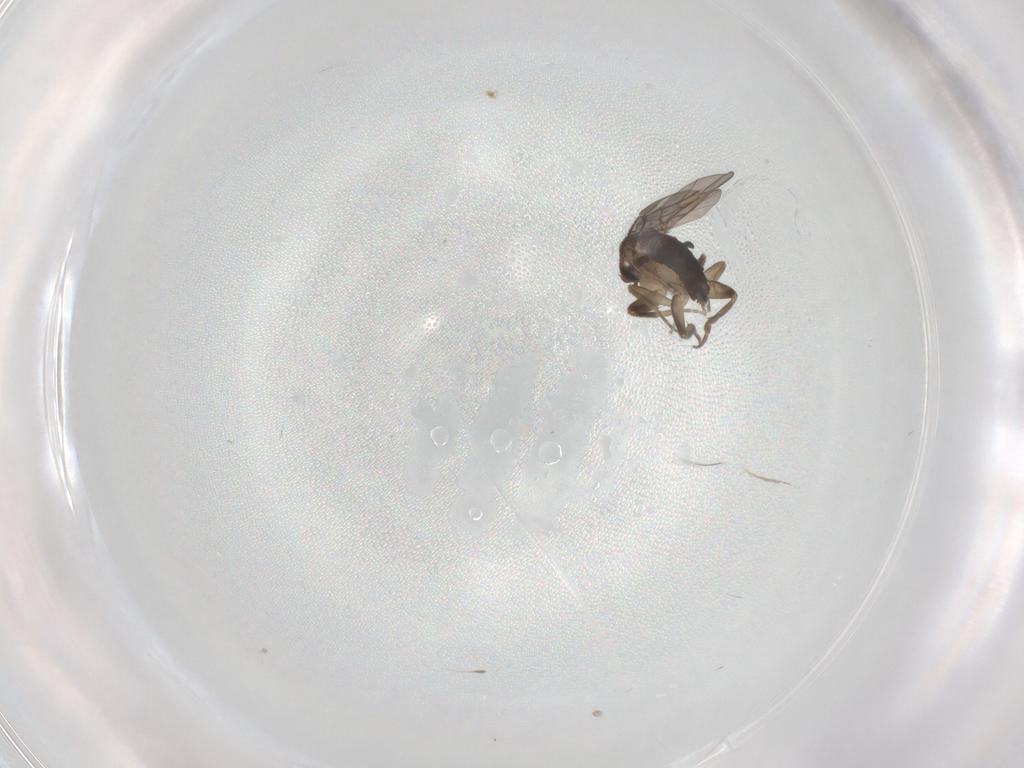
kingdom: Animalia
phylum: Arthropoda
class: Insecta
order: Diptera
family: Phoridae
